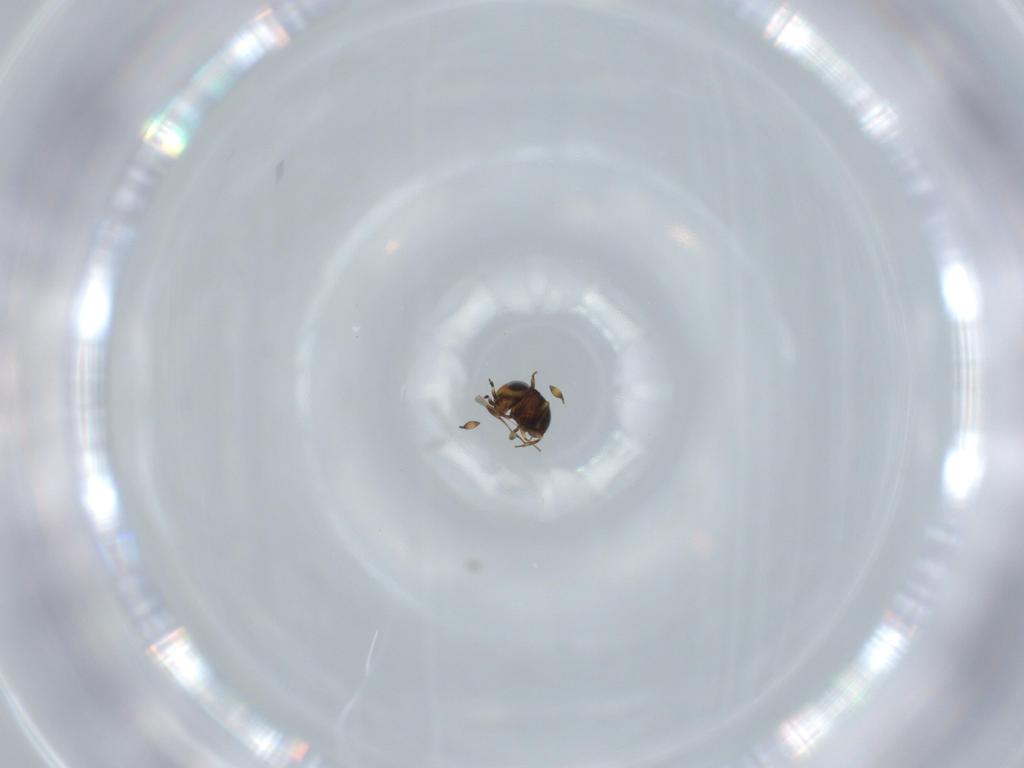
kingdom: Animalia
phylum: Arthropoda
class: Insecta
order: Hymenoptera
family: Scelionidae
